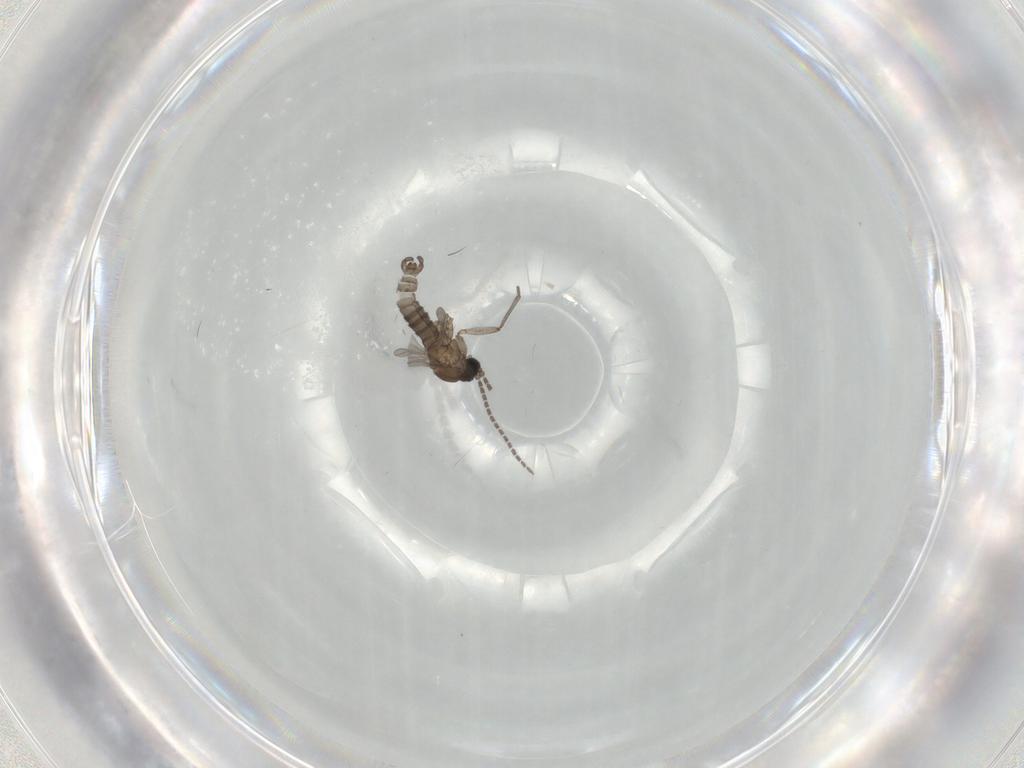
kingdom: Animalia
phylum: Arthropoda
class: Insecta
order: Diptera
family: Sciaridae
